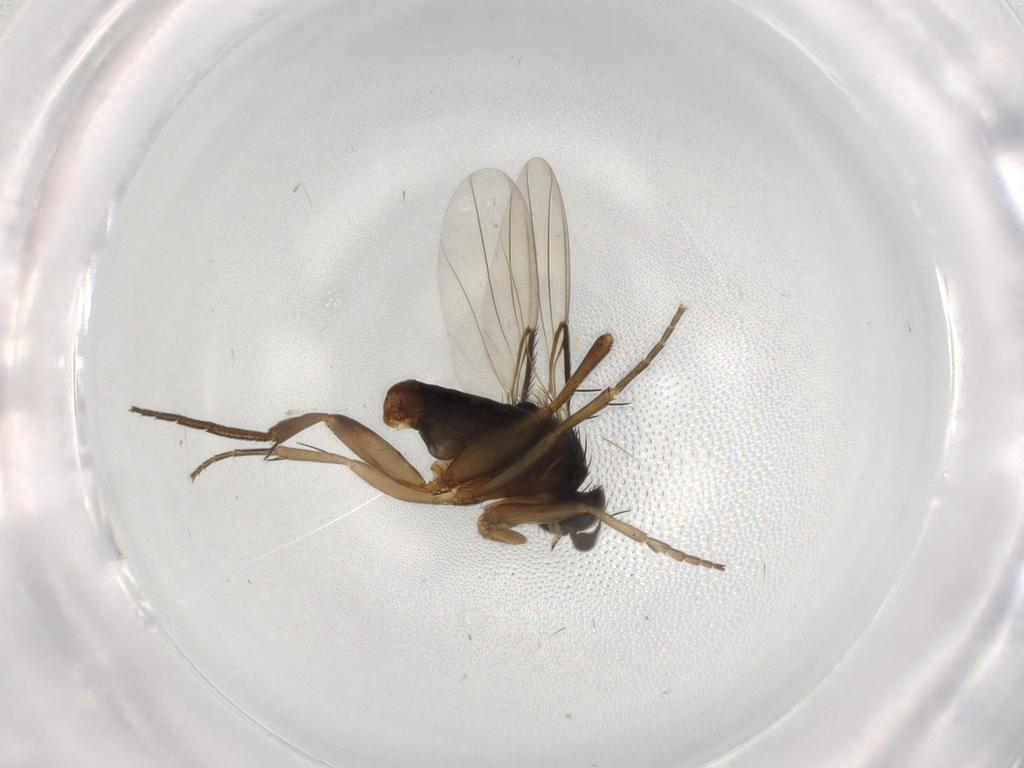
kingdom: Animalia
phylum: Arthropoda
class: Insecta
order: Diptera
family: Phoridae
